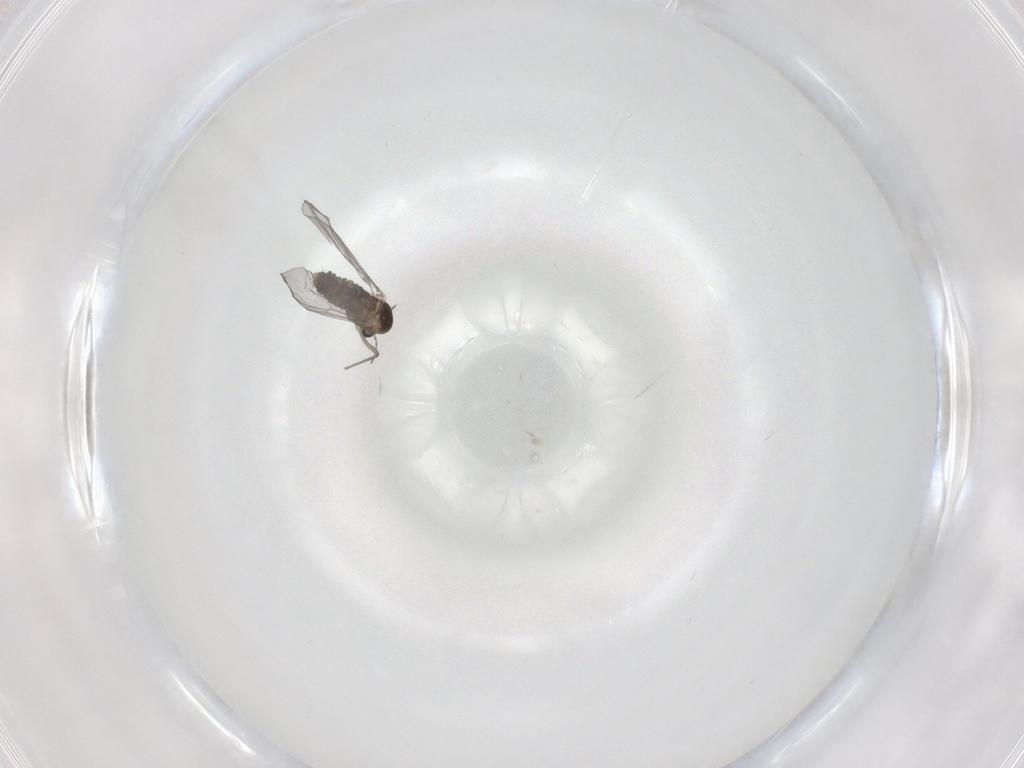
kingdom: Animalia
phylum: Arthropoda
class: Insecta
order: Diptera
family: Chironomidae
